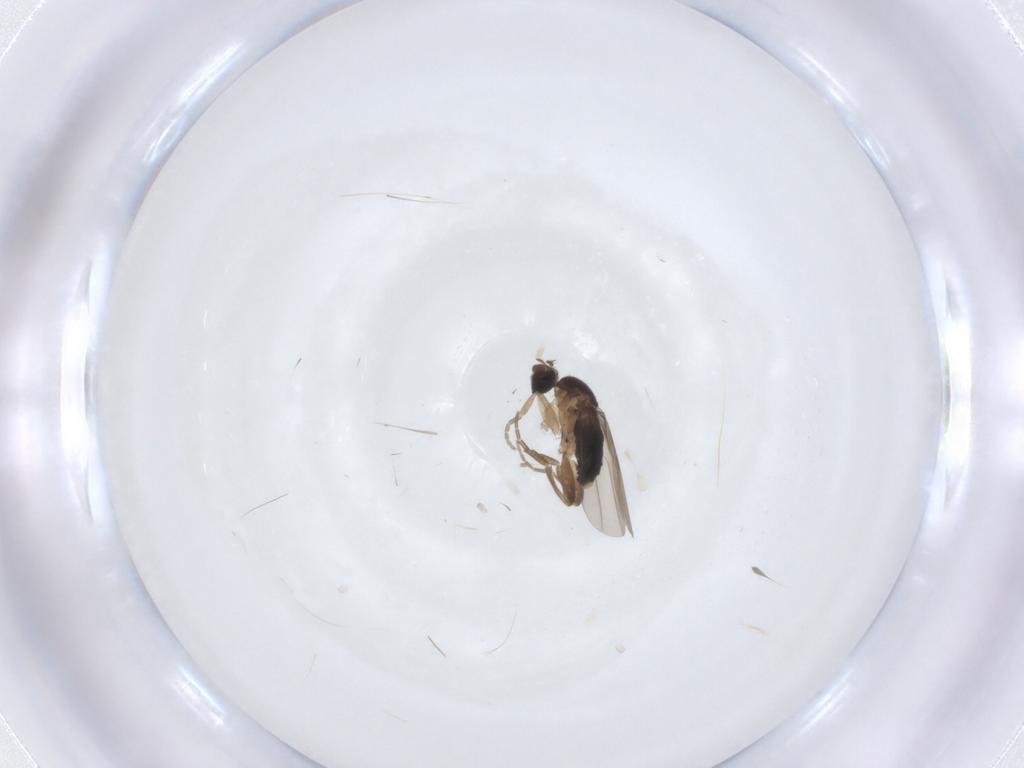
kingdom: Animalia
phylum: Arthropoda
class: Insecta
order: Diptera
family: Phoridae
